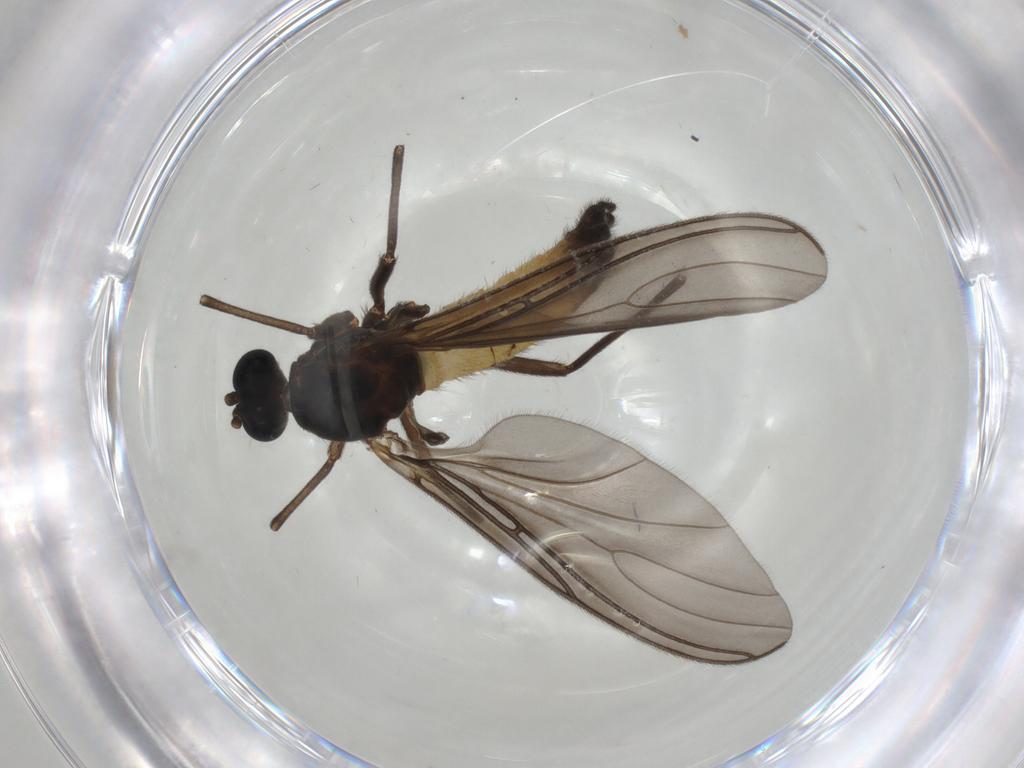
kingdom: Animalia
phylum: Arthropoda
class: Insecta
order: Diptera
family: Sciaridae
